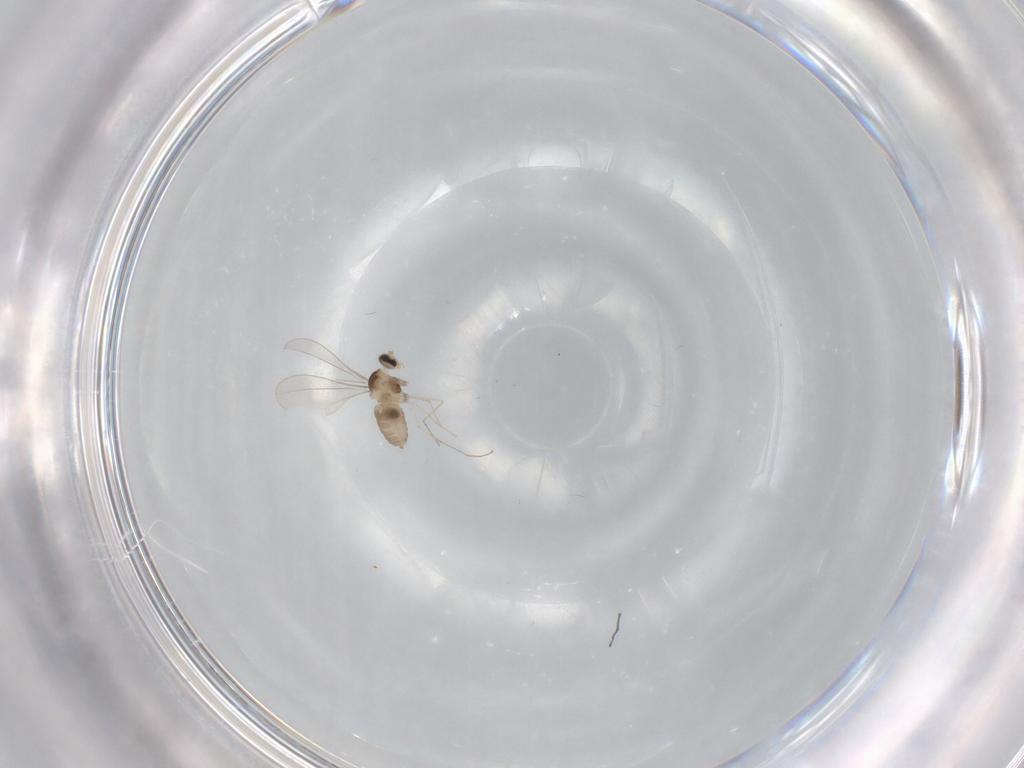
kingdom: Animalia
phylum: Arthropoda
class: Insecta
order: Diptera
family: Cecidomyiidae
